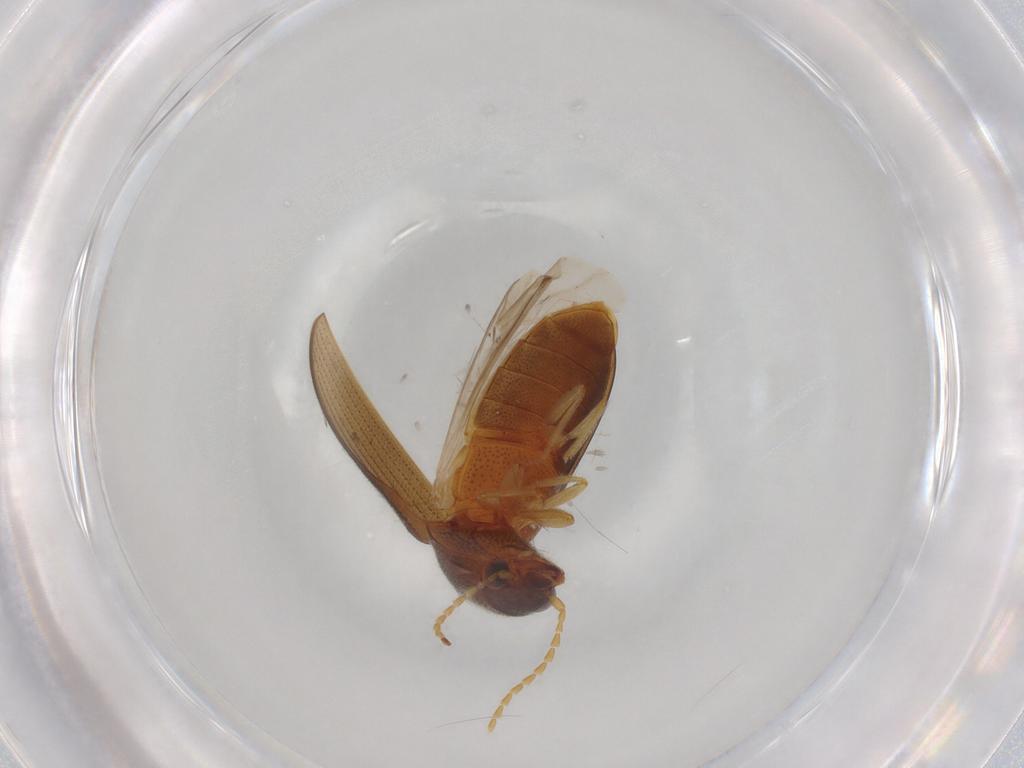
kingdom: Animalia
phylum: Arthropoda
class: Insecta
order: Coleoptera
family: Elateridae
